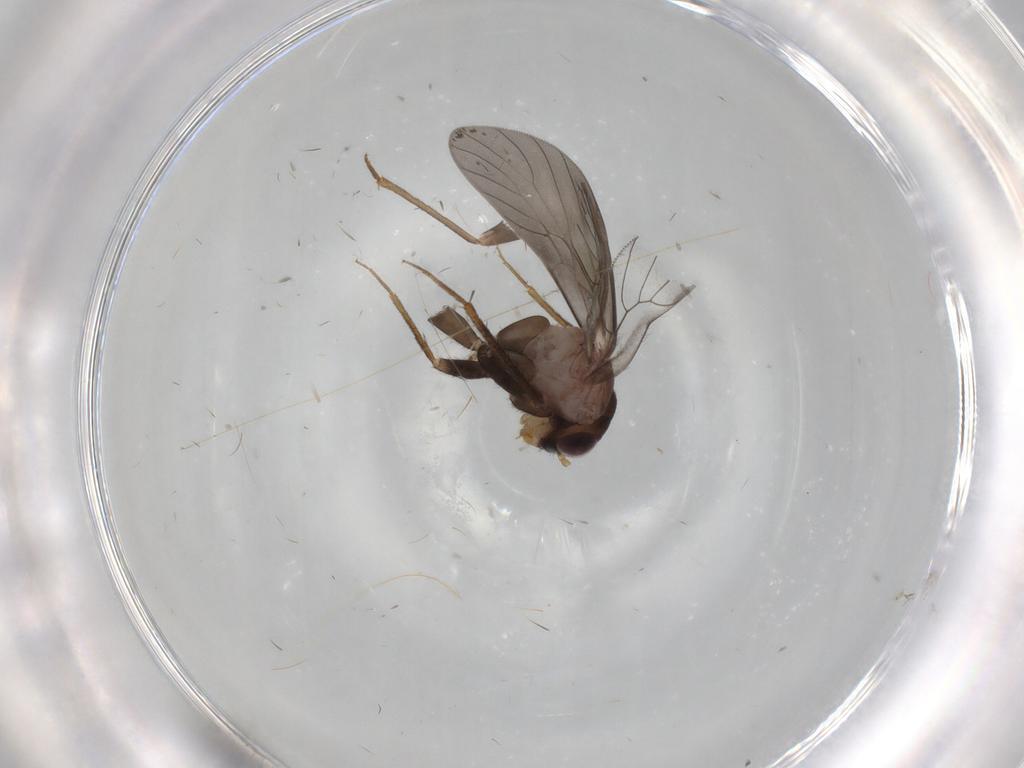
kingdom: Animalia
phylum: Arthropoda
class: Insecta
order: Psocodea
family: Lepidopsocidae
